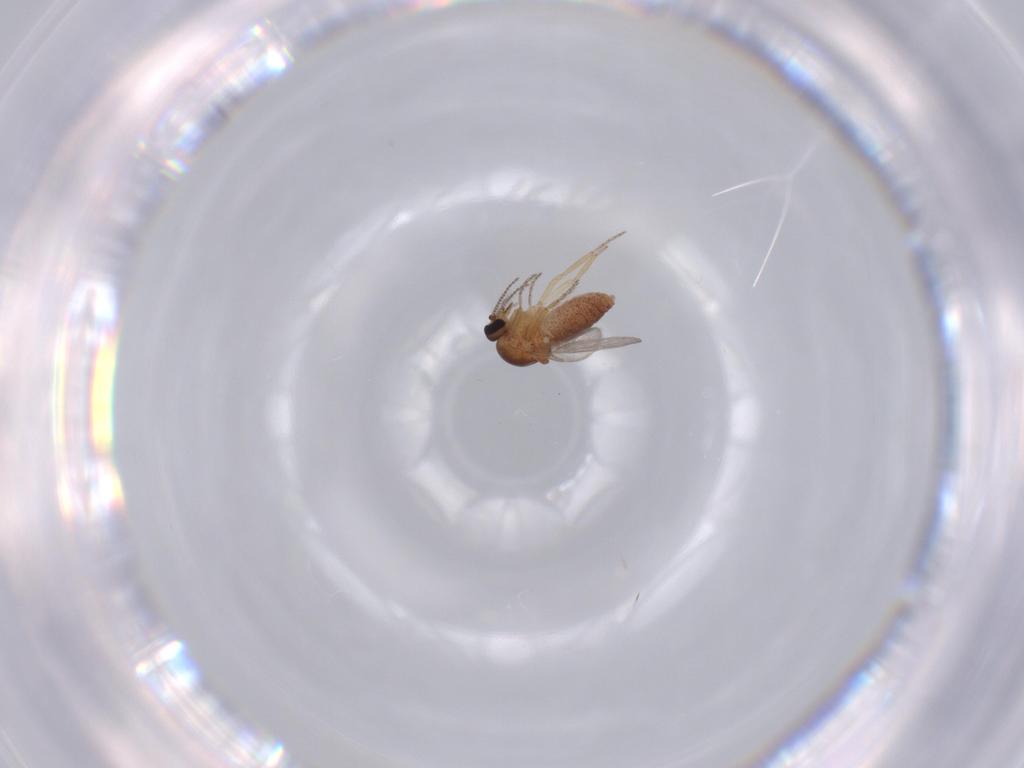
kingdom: Animalia
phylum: Arthropoda
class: Insecta
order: Diptera
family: Ceratopogonidae
